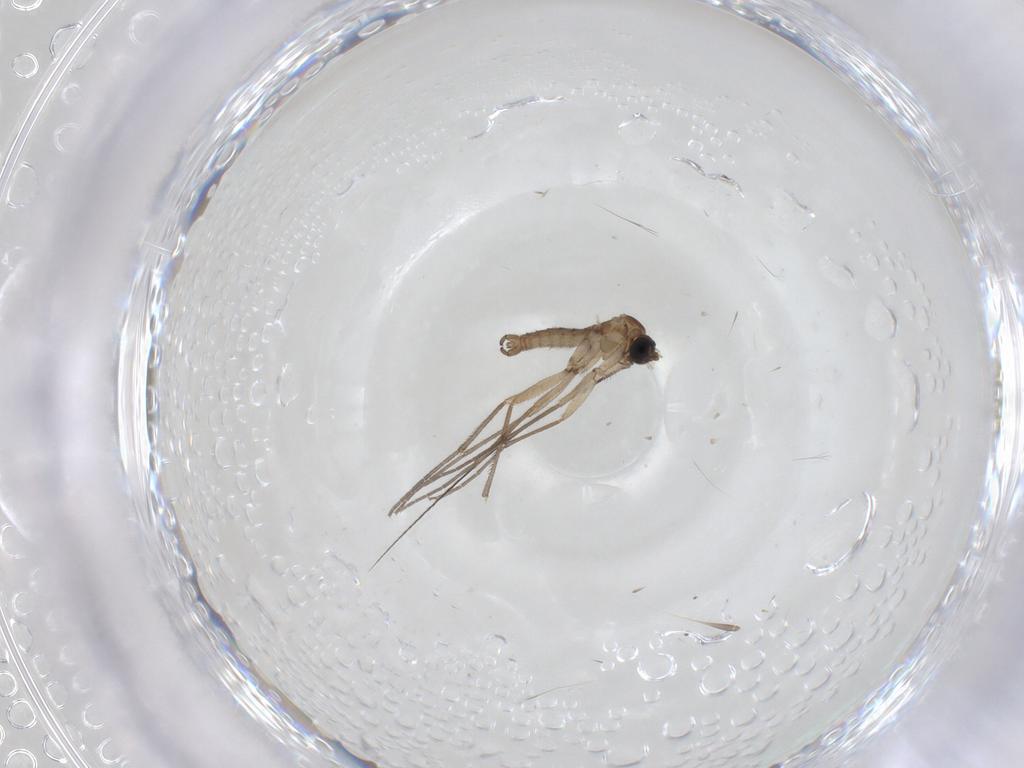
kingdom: Animalia
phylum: Arthropoda
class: Insecta
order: Diptera
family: Sciaridae
